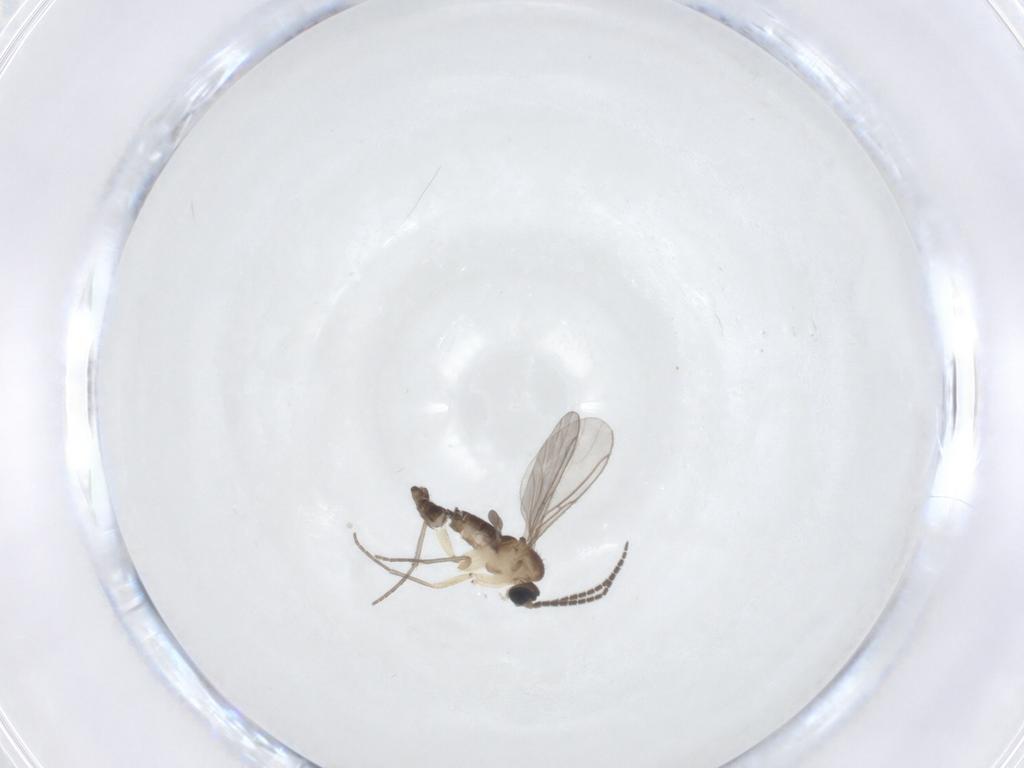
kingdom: Animalia
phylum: Arthropoda
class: Insecta
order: Diptera
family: Sciaridae
